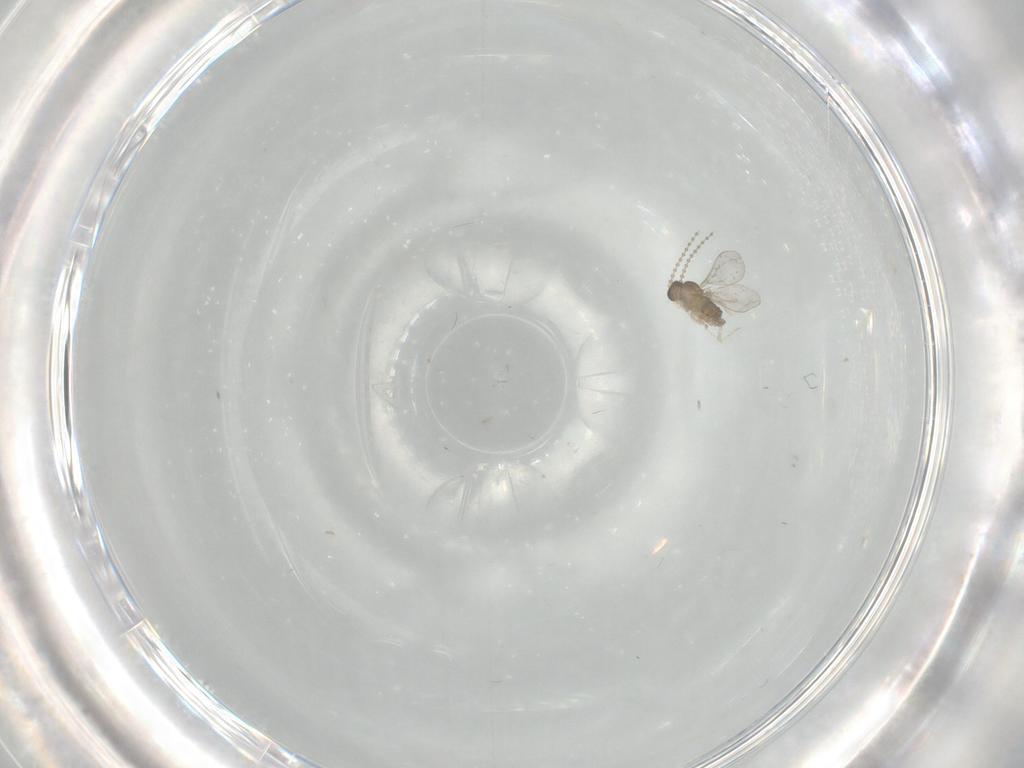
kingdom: Animalia
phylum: Arthropoda
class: Insecta
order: Diptera
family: Cecidomyiidae
